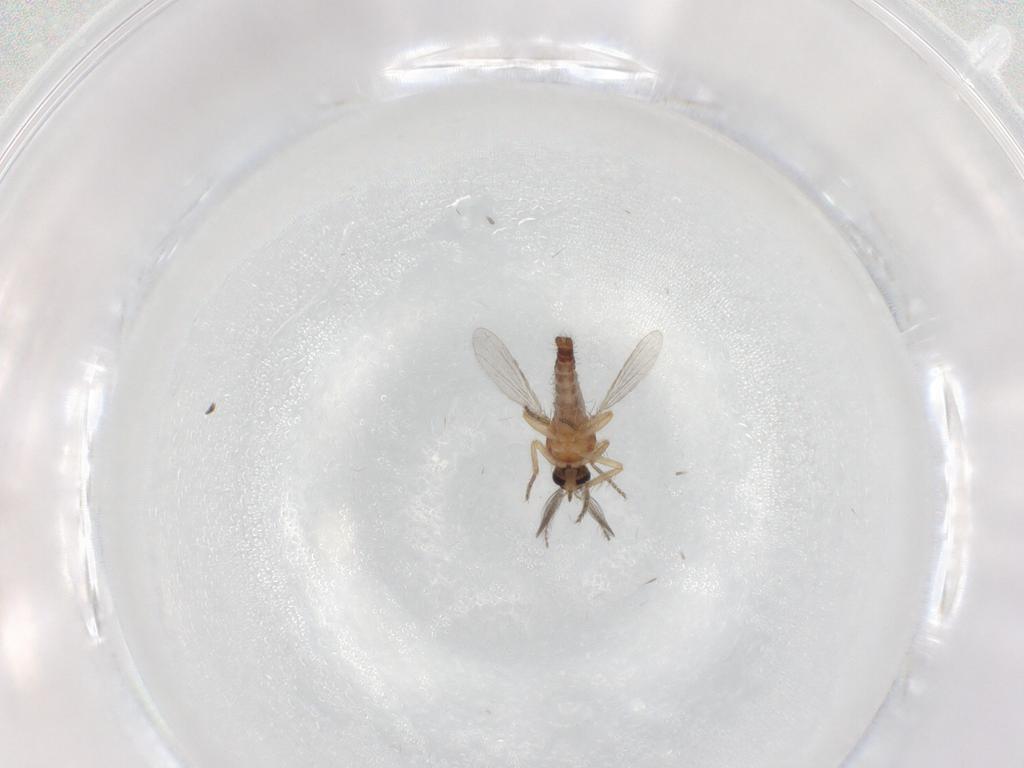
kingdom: Animalia
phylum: Arthropoda
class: Insecta
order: Diptera
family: Ceratopogonidae
